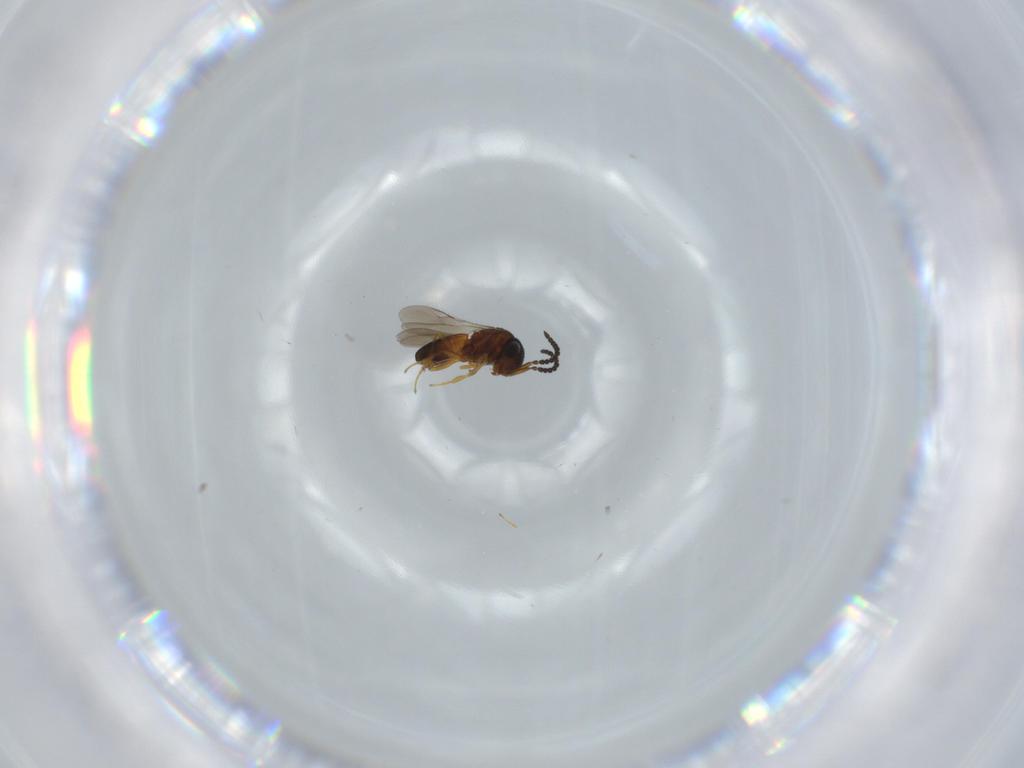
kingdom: Animalia
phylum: Arthropoda
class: Insecta
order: Hymenoptera
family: Scelionidae
